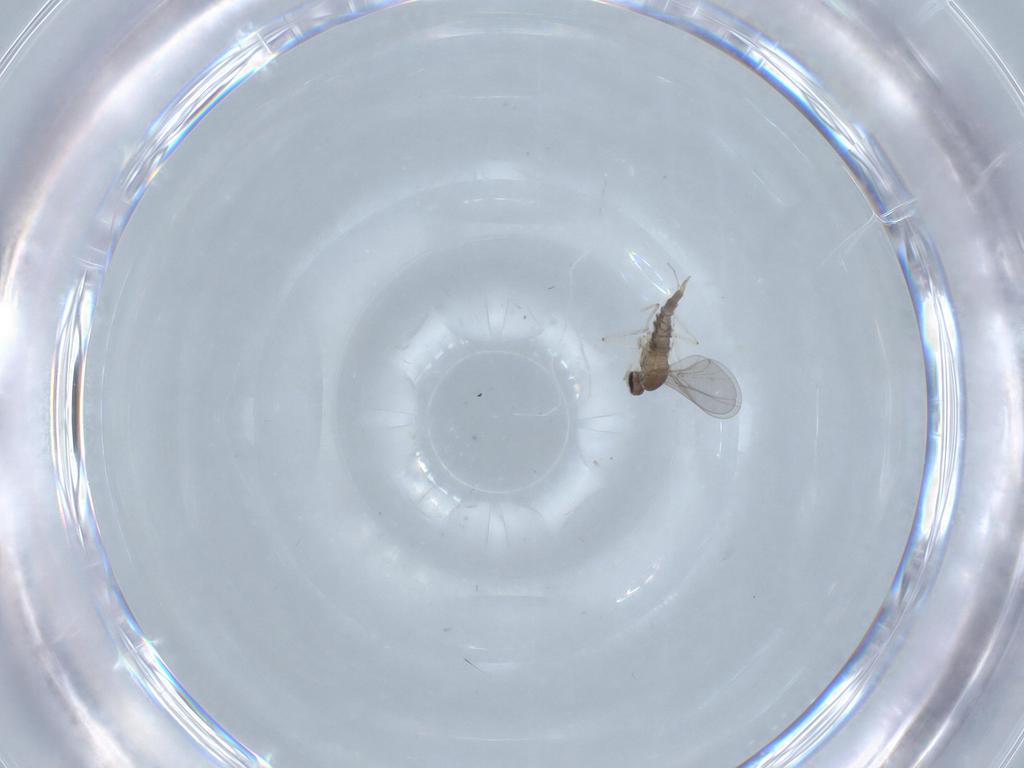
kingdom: Animalia
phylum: Arthropoda
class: Insecta
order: Diptera
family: Cecidomyiidae
